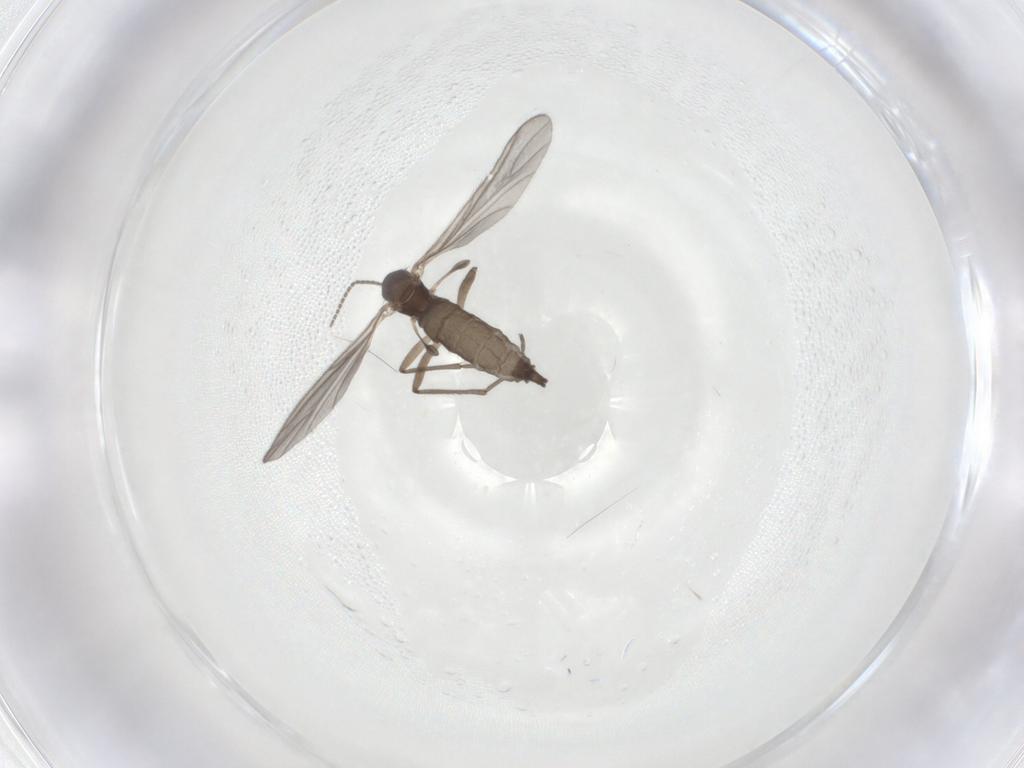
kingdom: Animalia
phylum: Arthropoda
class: Insecta
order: Diptera
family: Sciaridae
